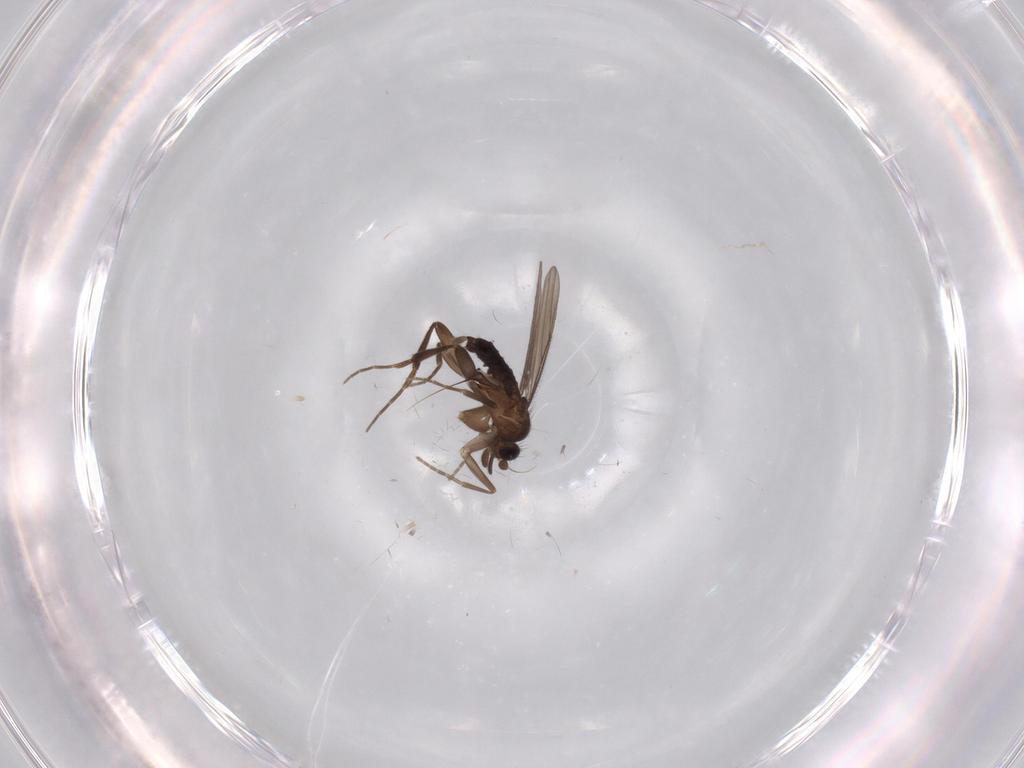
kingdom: Animalia
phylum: Arthropoda
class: Insecta
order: Diptera
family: Phoridae
